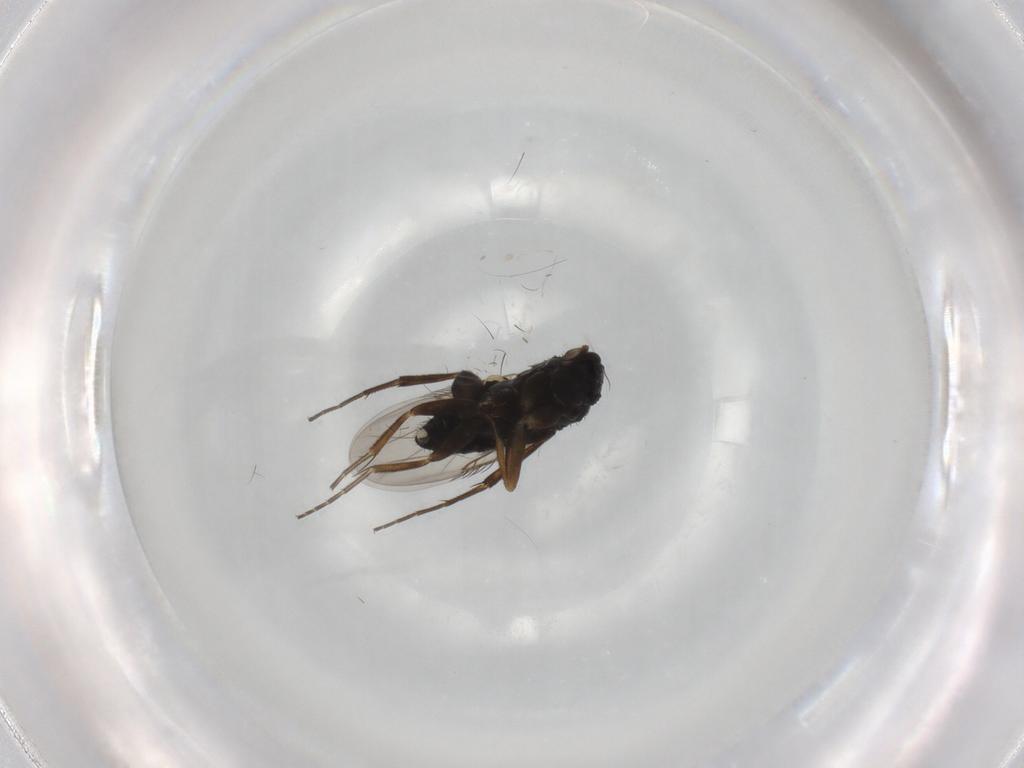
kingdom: Animalia
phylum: Arthropoda
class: Insecta
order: Diptera
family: Phoridae
